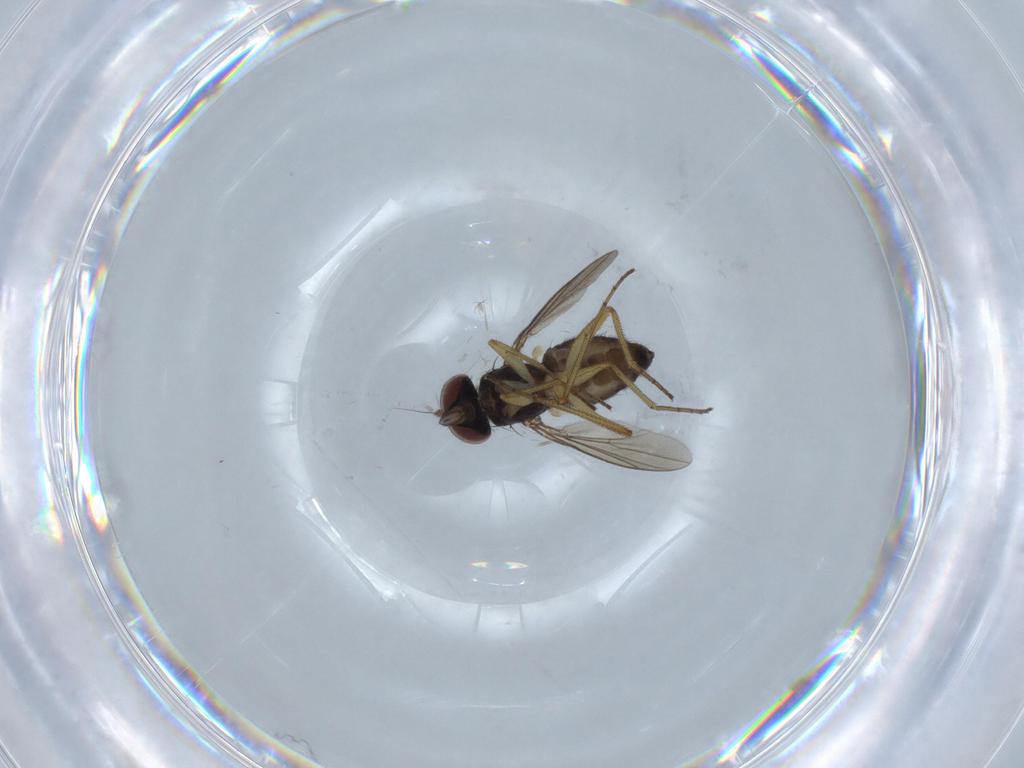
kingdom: Animalia
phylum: Arthropoda
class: Insecta
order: Diptera
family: Dolichopodidae
